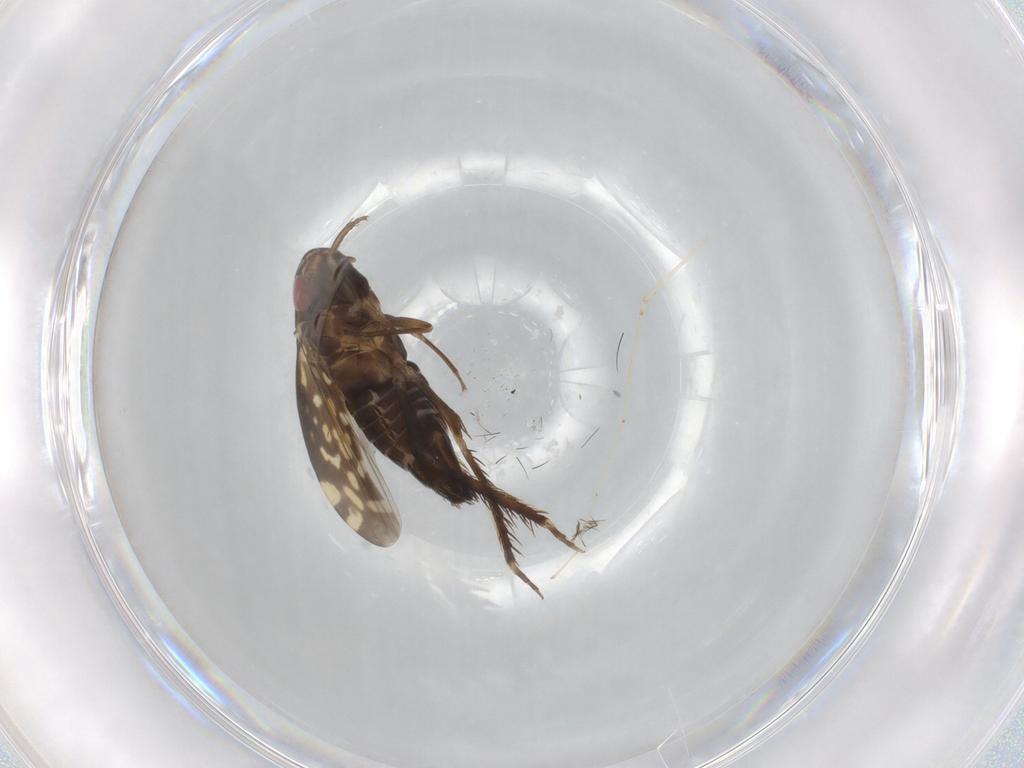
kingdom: Animalia
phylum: Arthropoda
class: Insecta
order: Hemiptera
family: Cicadellidae
